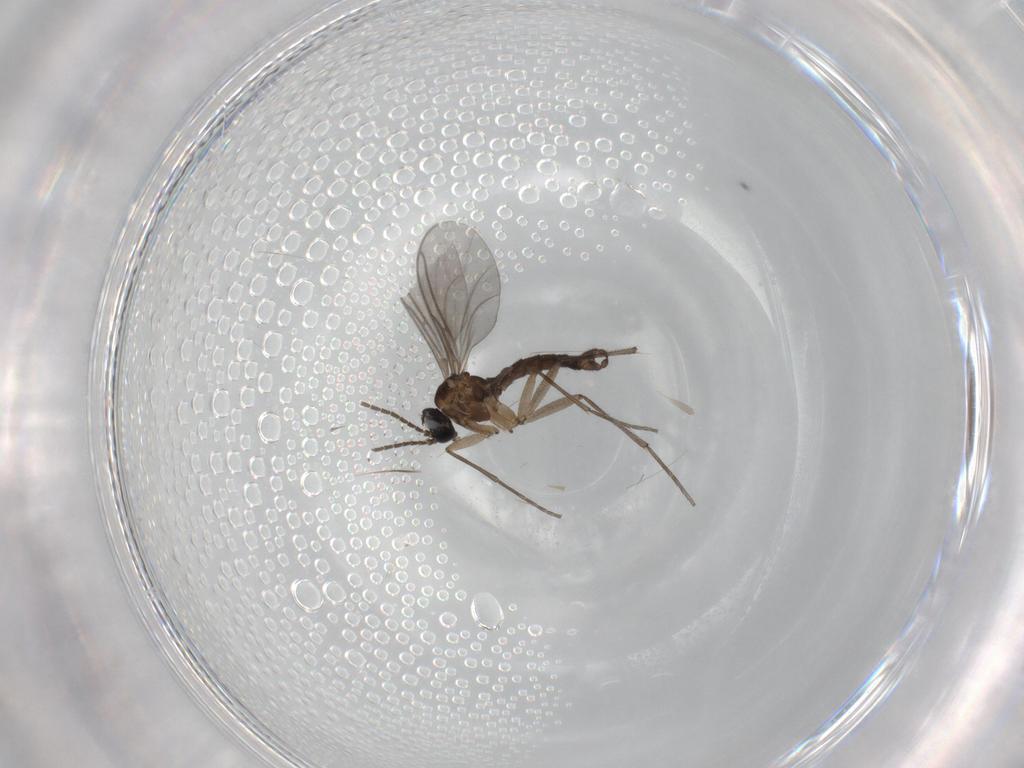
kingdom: Animalia
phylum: Arthropoda
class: Insecta
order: Diptera
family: Sciaridae
